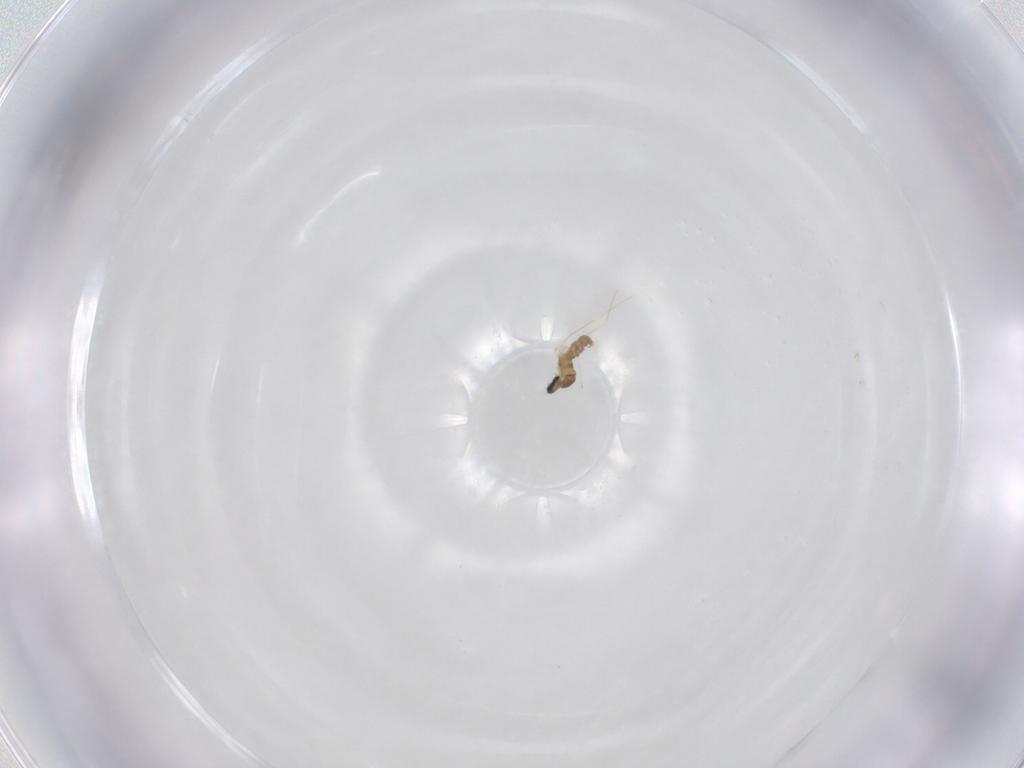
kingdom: Animalia
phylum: Arthropoda
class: Insecta
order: Diptera
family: Cecidomyiidae
